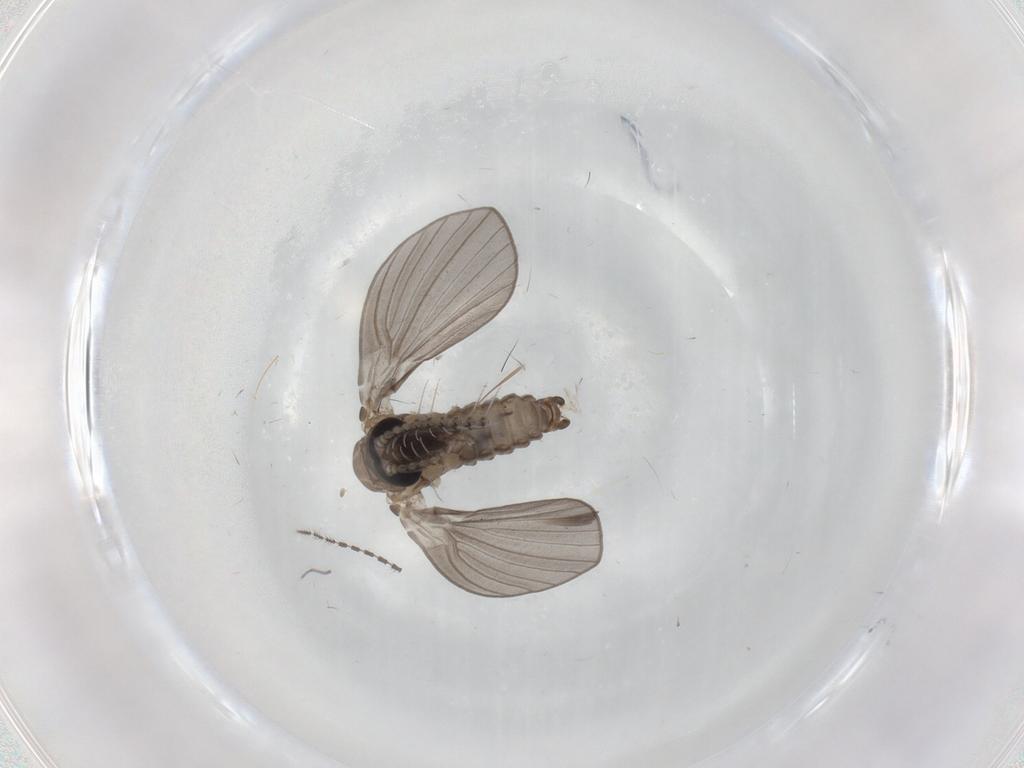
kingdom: Animalia
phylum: Arthropoda
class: Insecta
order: Diptera
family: Psychodidae
